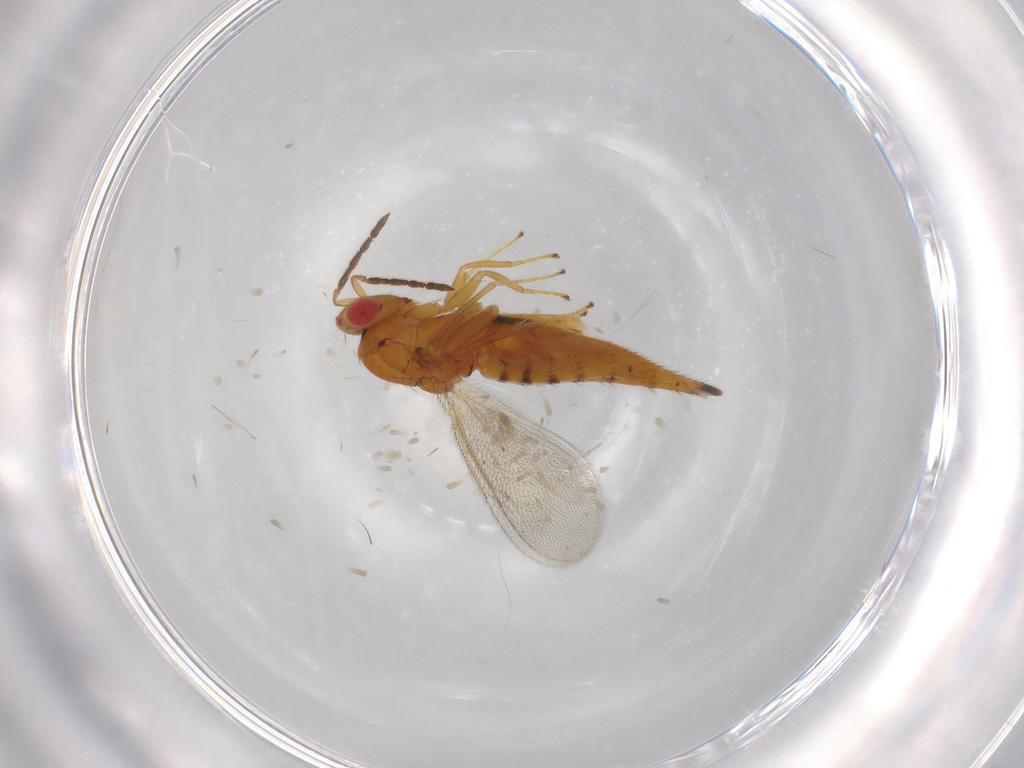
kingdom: Animalia
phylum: Arthropoda
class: Insecta
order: Hymenoptera
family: Eulophidae
